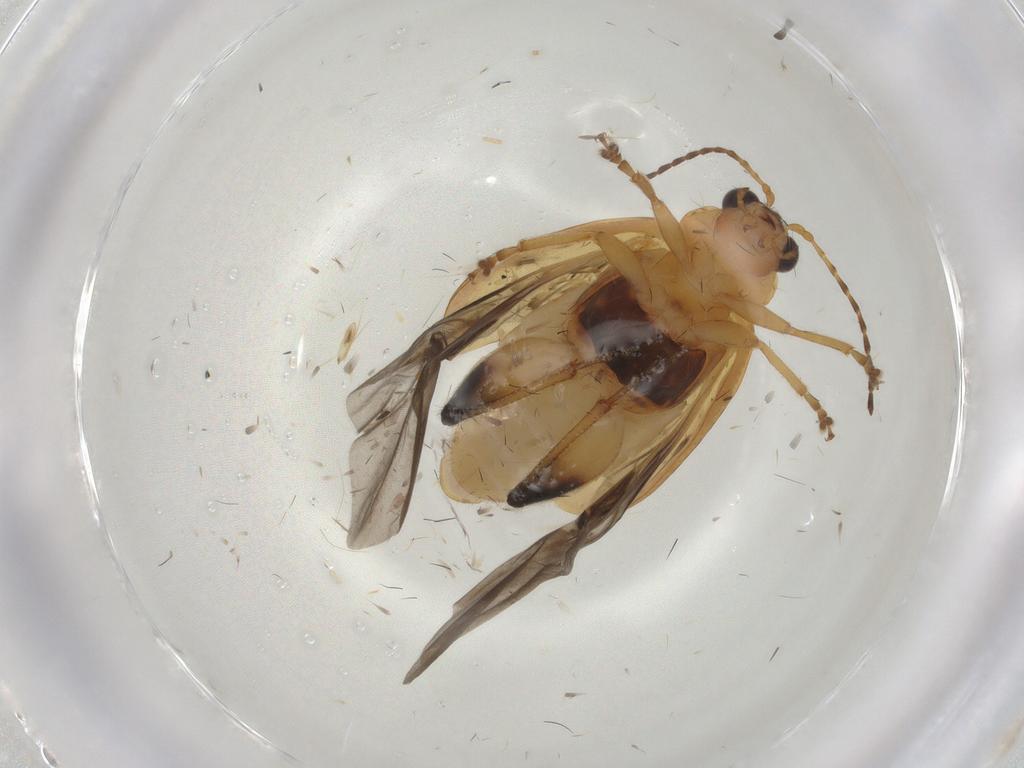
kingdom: Animalia
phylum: Arthropoda
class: Insecta
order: Coleoptera
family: Chrysomelidae
